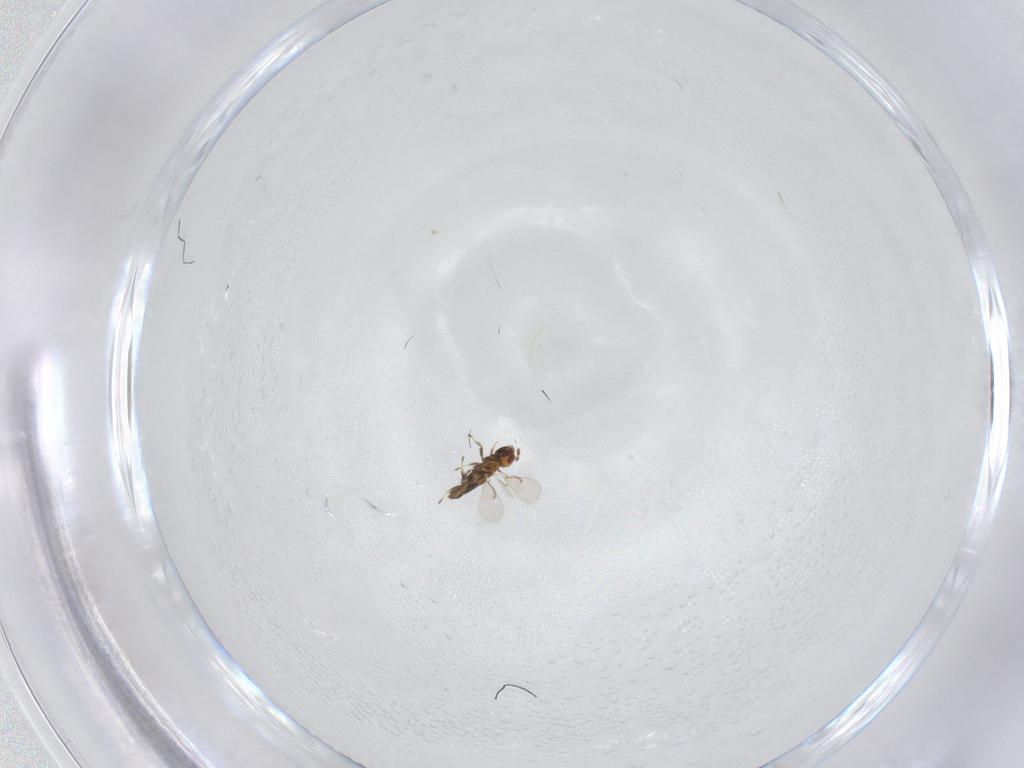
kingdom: Animalia
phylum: Arthropoda
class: Insecta
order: Hymenoptera
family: Trichogrammatidae
